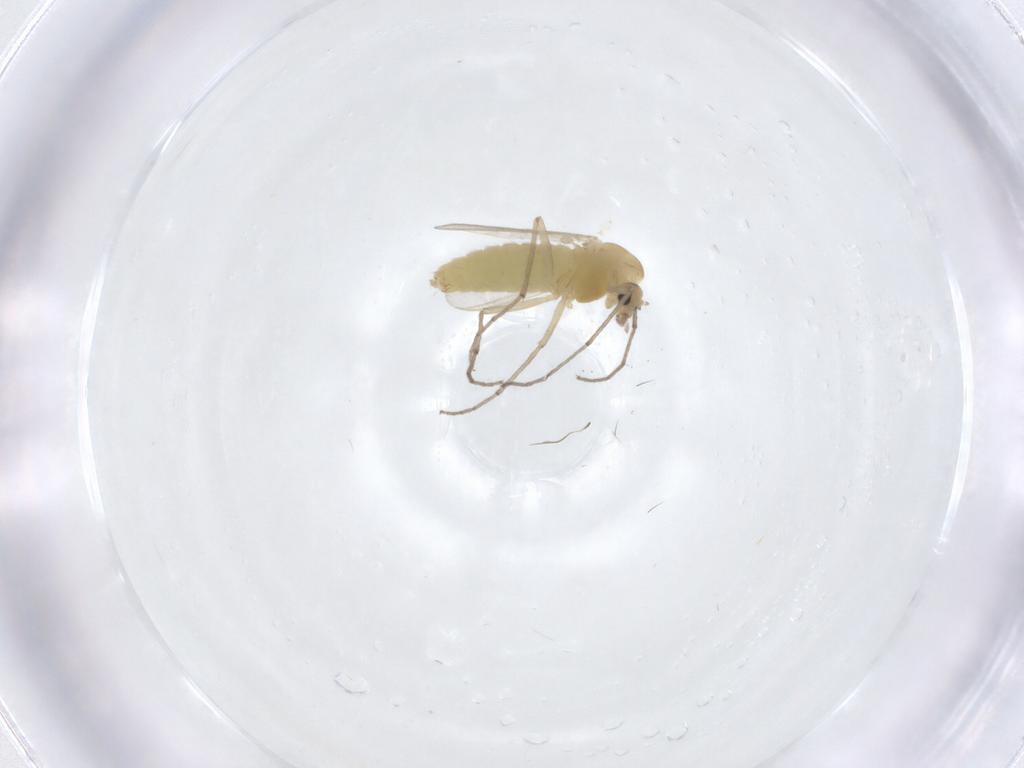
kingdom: Animalia
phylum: Arthropoda
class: Insecta
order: Diptera
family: Chironomidae
